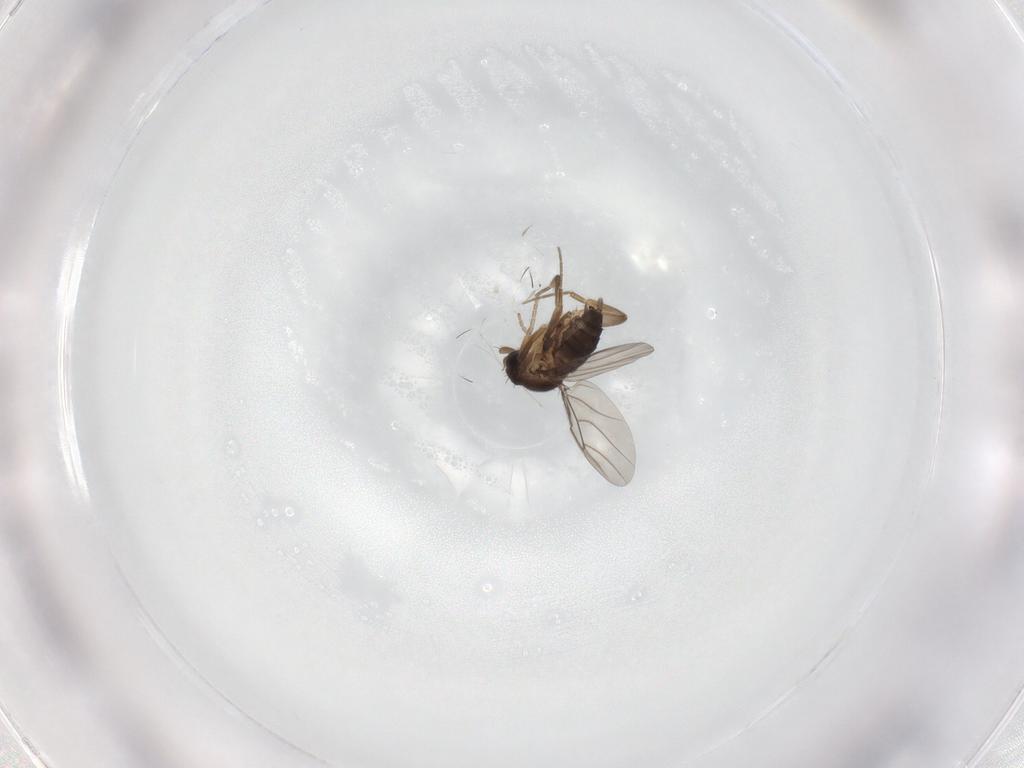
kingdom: Animalia
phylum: Arthropoda
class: Insecta
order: Diptera
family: Phoridae
